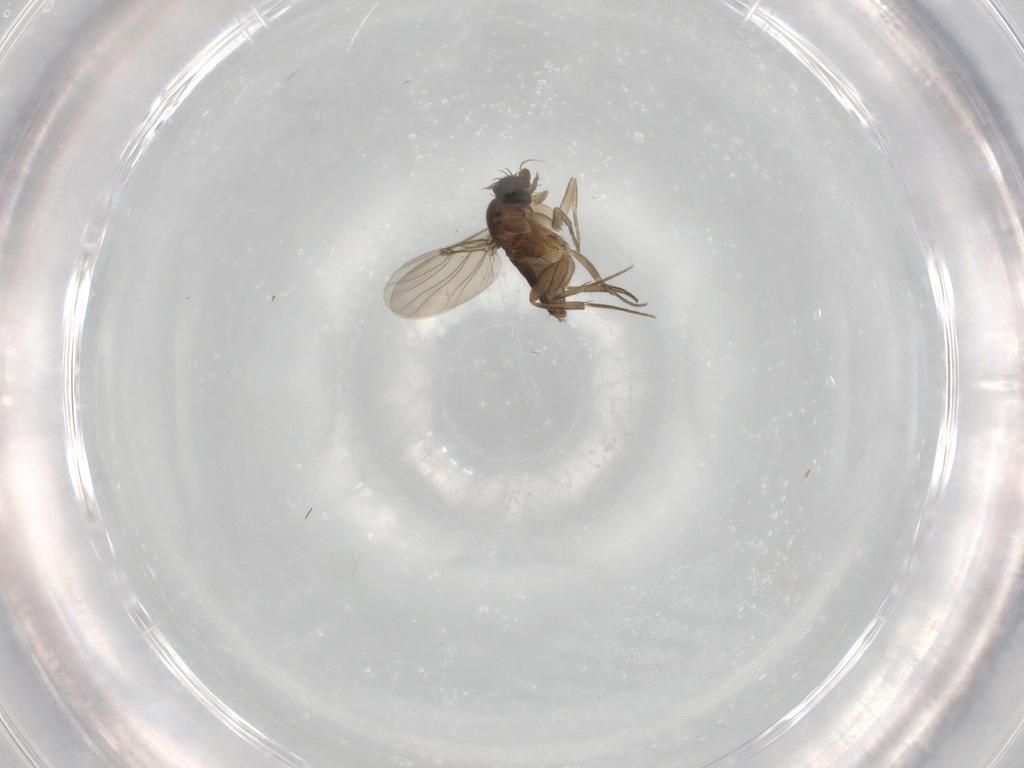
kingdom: Animalia
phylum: Arthropoda
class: Insecta
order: Diptera
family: Phoridae
